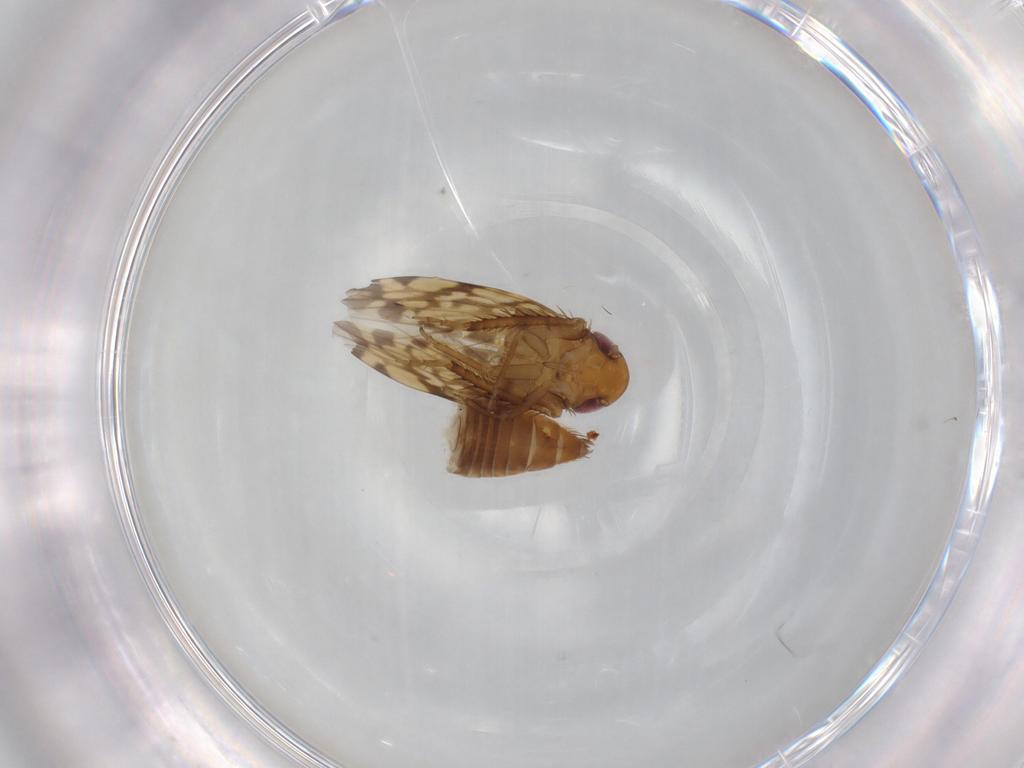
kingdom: Animalia
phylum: Arthropoda
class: Insecta
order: Hemiptera
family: Cicadellidae
